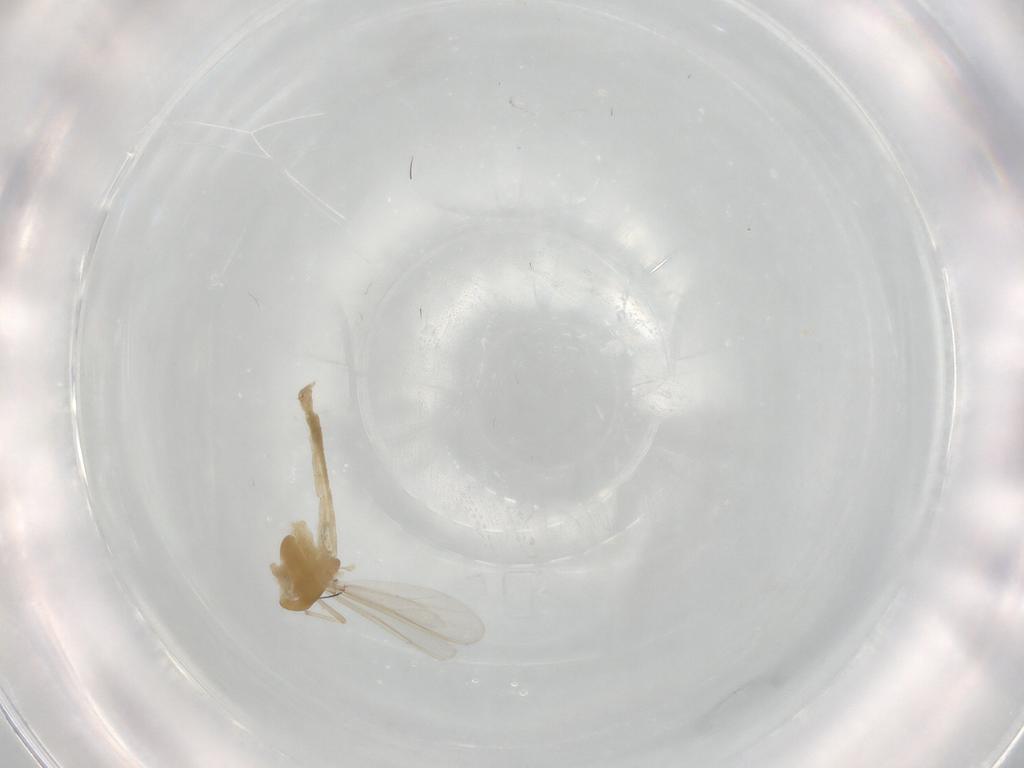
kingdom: Animalia
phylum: Arthropoda
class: Insecta
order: Diptera
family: Chironomidae
